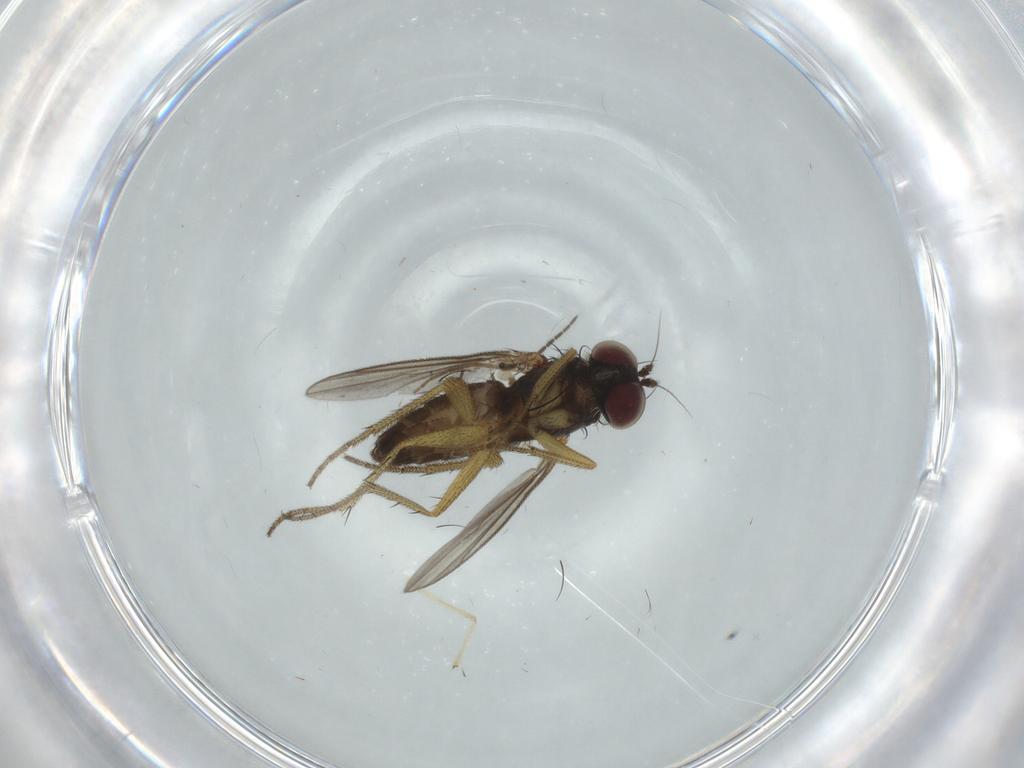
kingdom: Animalia
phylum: Arthropoda
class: Insecta
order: Diptera
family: Dolichopodidae
